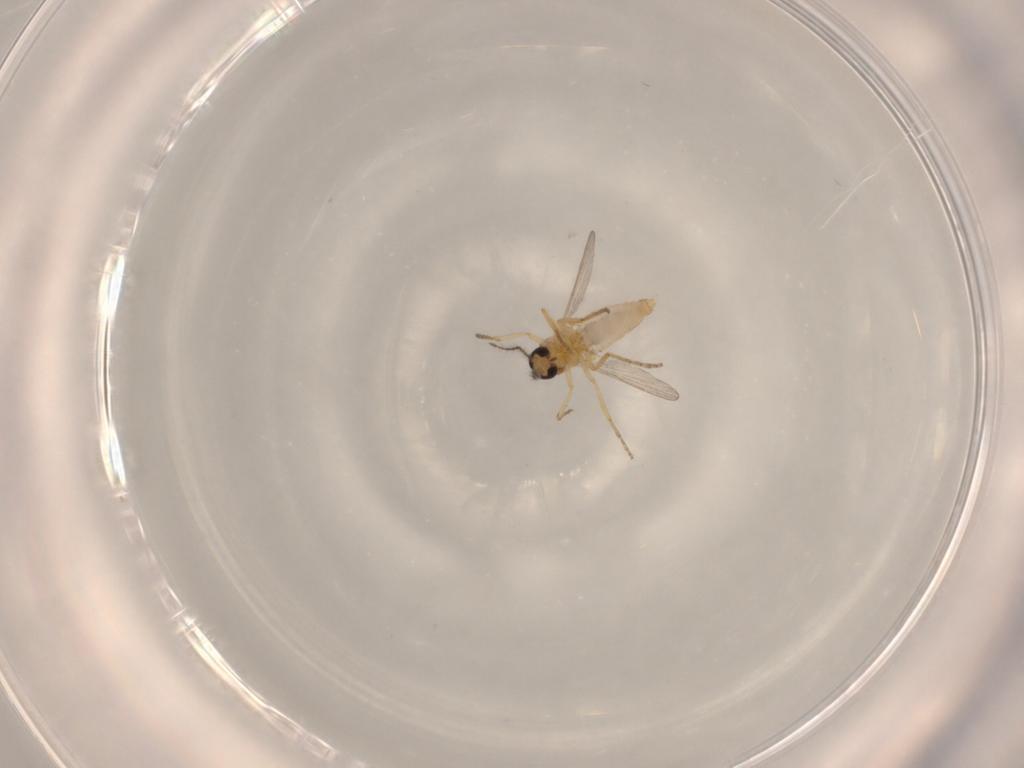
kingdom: Animalia
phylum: Arthropoda
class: Insecta
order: Diptera
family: Ceratopogonidae
